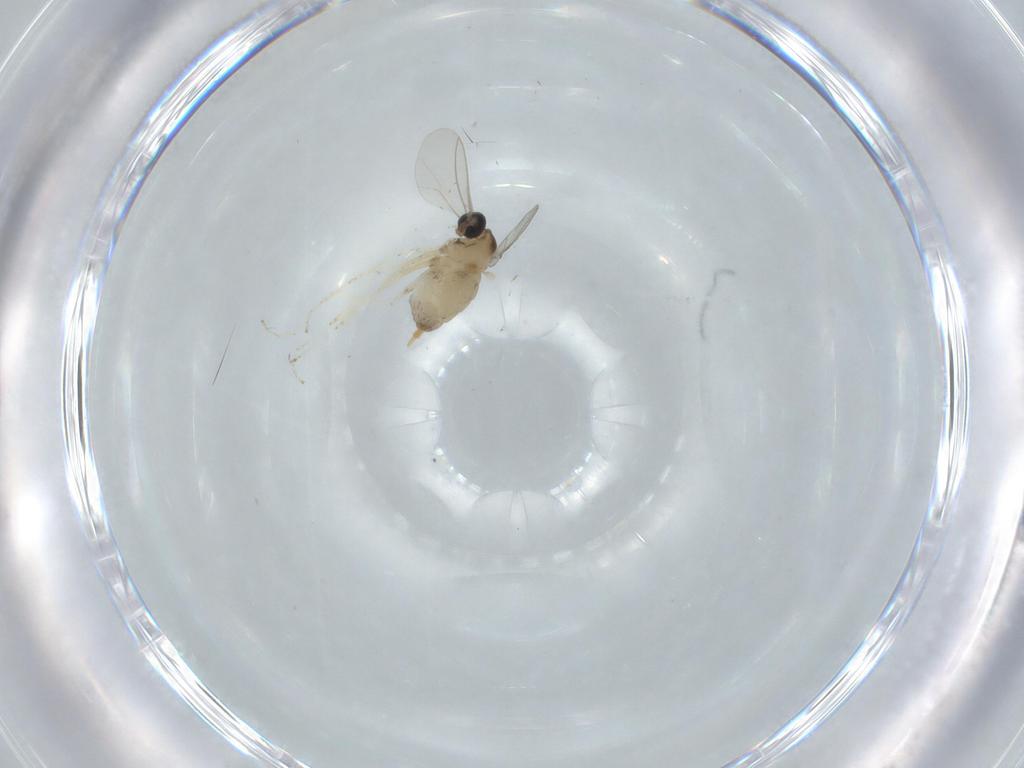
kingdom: Animalia
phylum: Arthropoda
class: Insecta
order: Diptera
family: Cecidomyiidae
